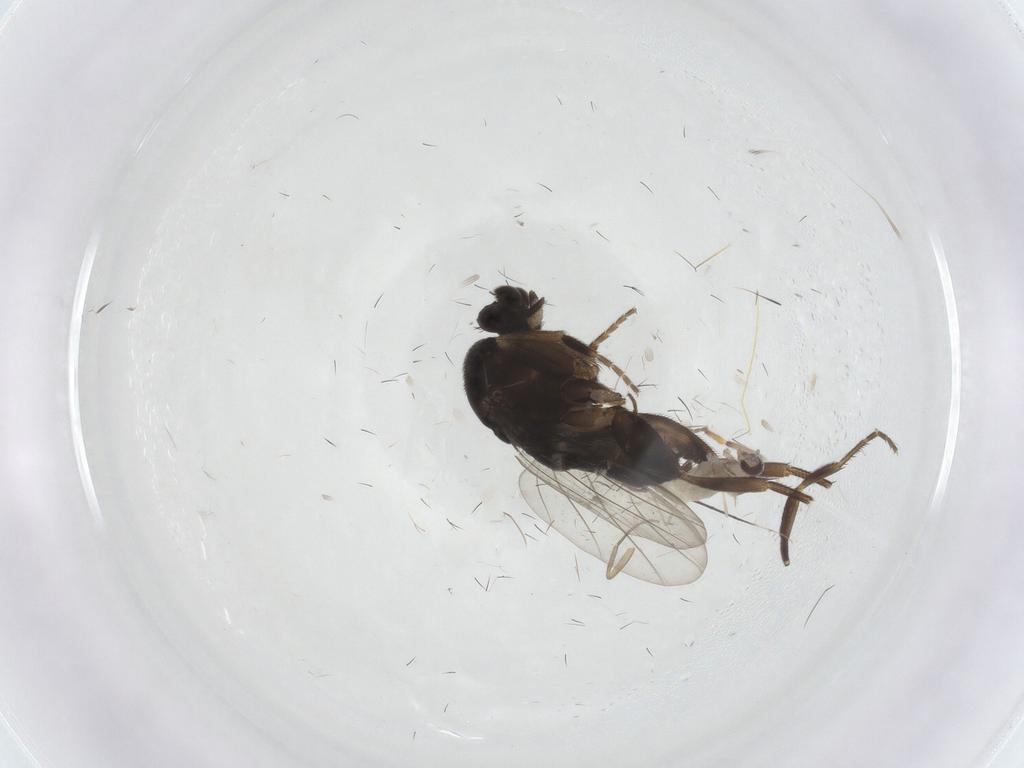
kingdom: Animalia
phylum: Arthropoda
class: Insecta
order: Diptera
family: Phoridae
